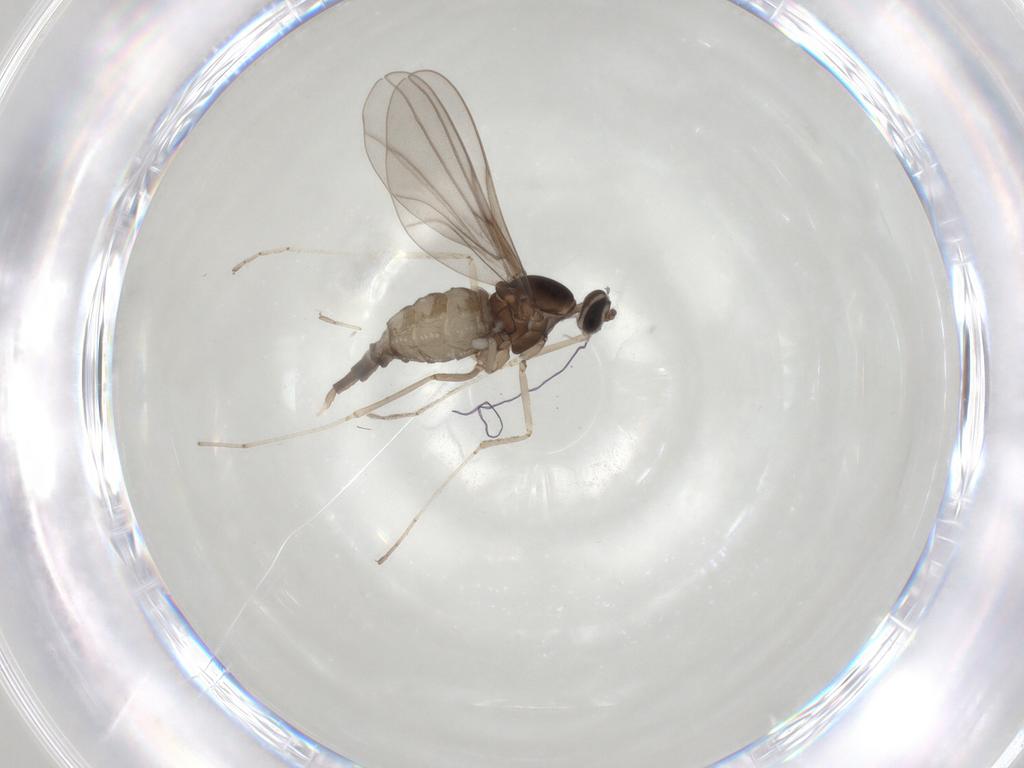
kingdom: Animalia
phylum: Arthropoda
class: Insecta
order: Diptera
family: Cecidomyiidae
